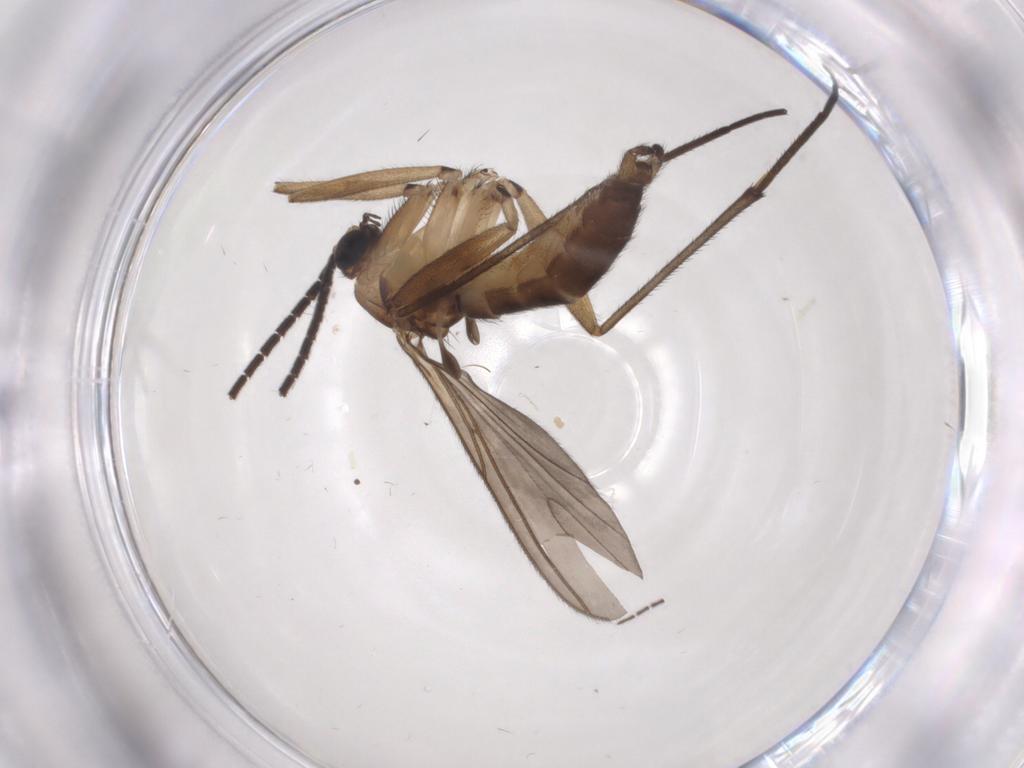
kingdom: Animalia
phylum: Arthropoda
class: Insecta
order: Diptera
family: Sciaridae
